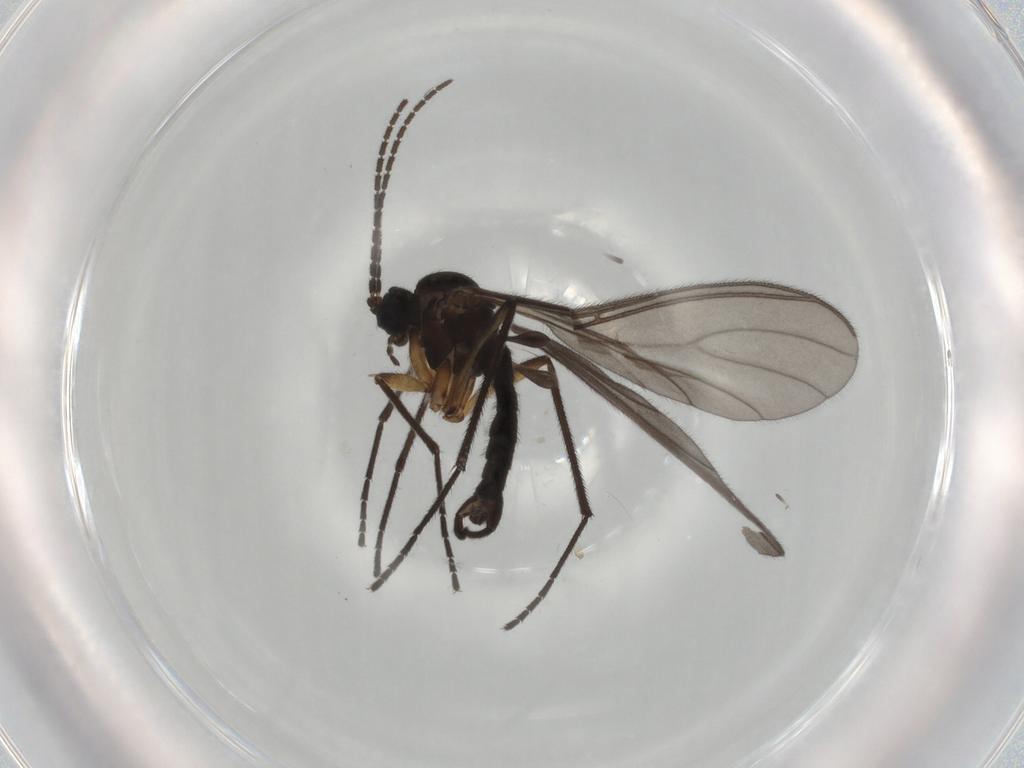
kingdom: Animalia
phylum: Arthropoda
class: Insecta
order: Diptera
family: Sciaridae
